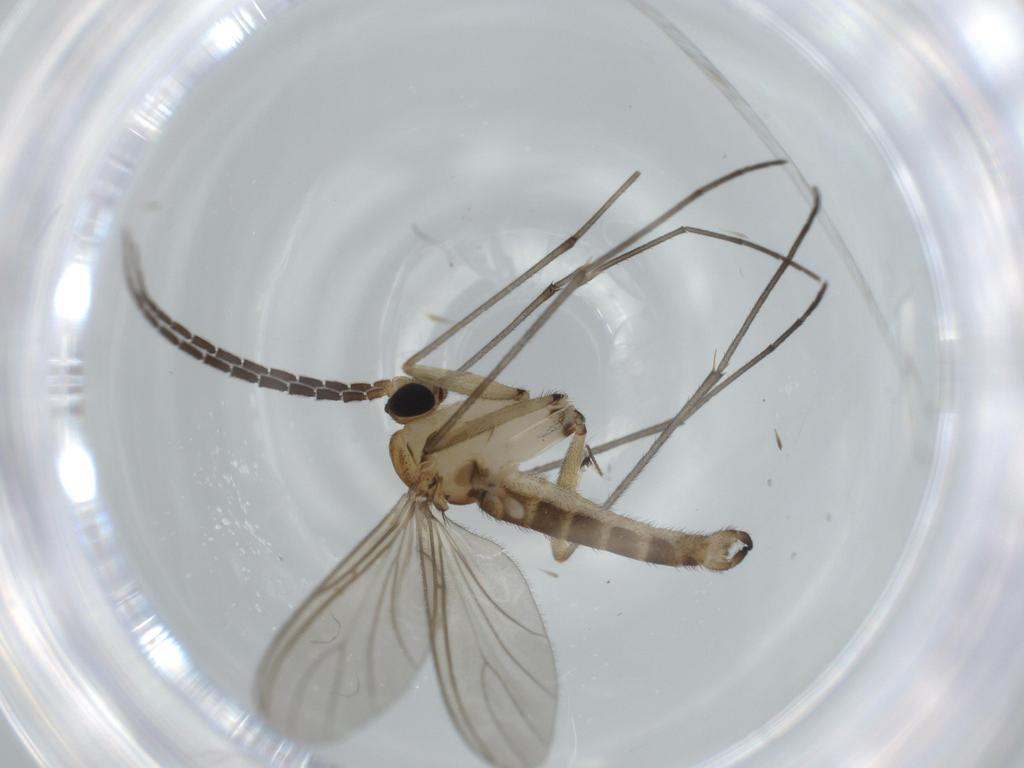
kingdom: Animalia
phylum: Arthropoda
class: Insecta
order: Diptera
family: Sciaridae
